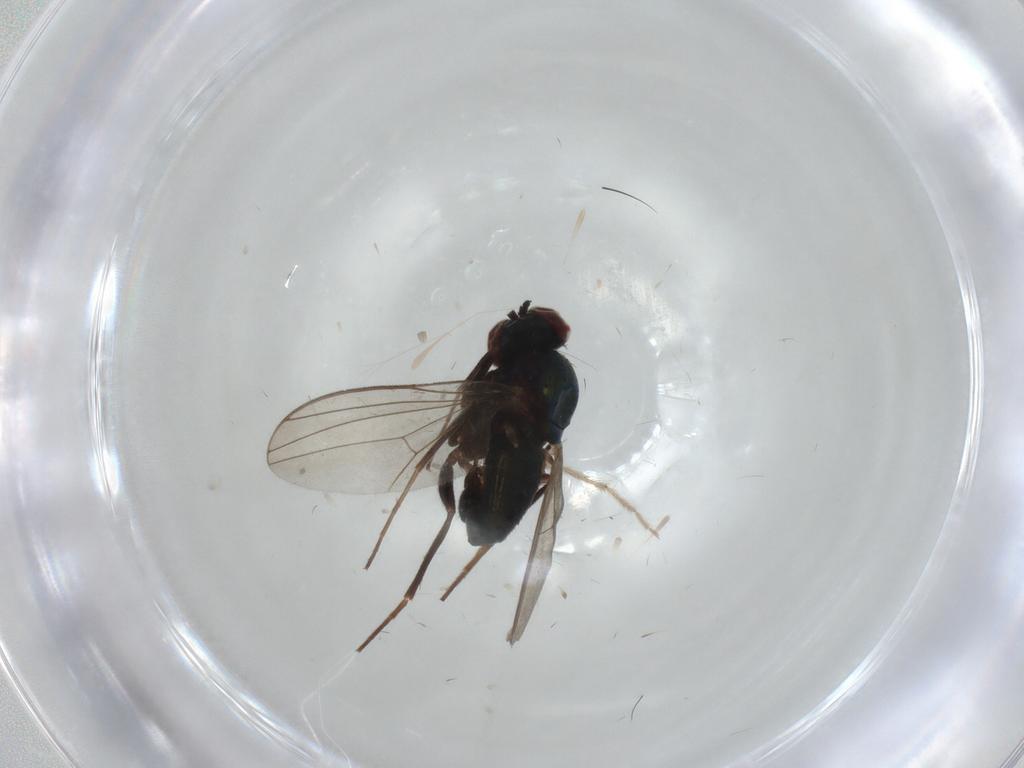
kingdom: Animalia
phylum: Arthropoda
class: Insecta
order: Diptera
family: Dolichopodidae
